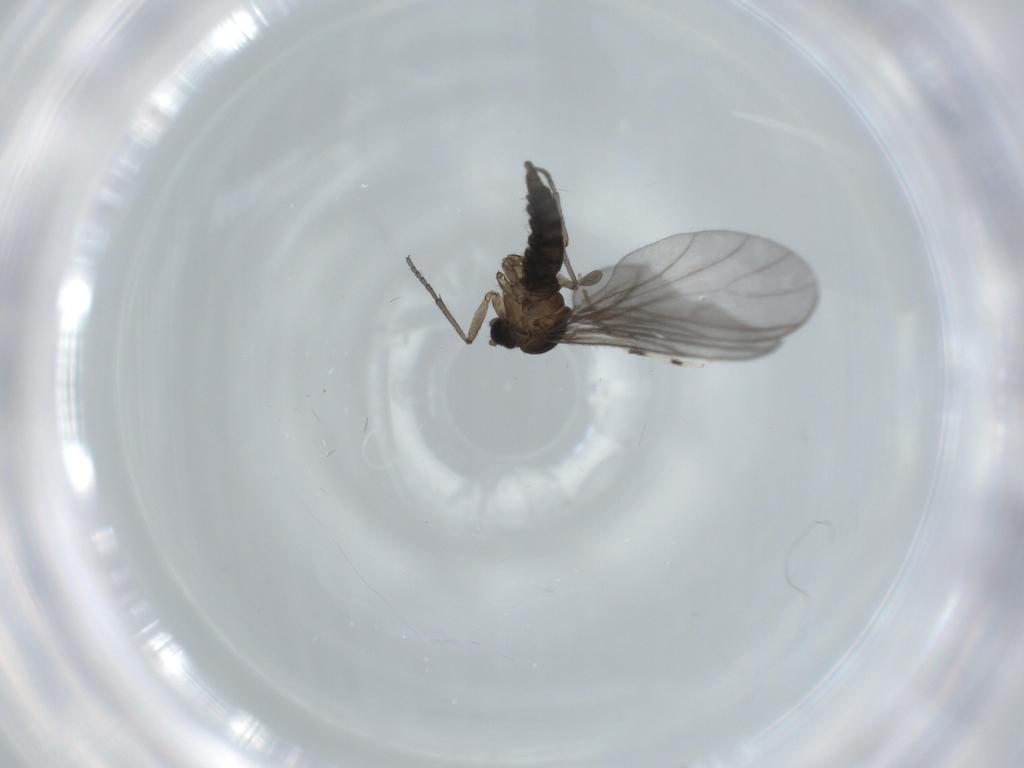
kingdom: Animalia
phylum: Arthropoda
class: Insecta
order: Diptera
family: Sciaridae
